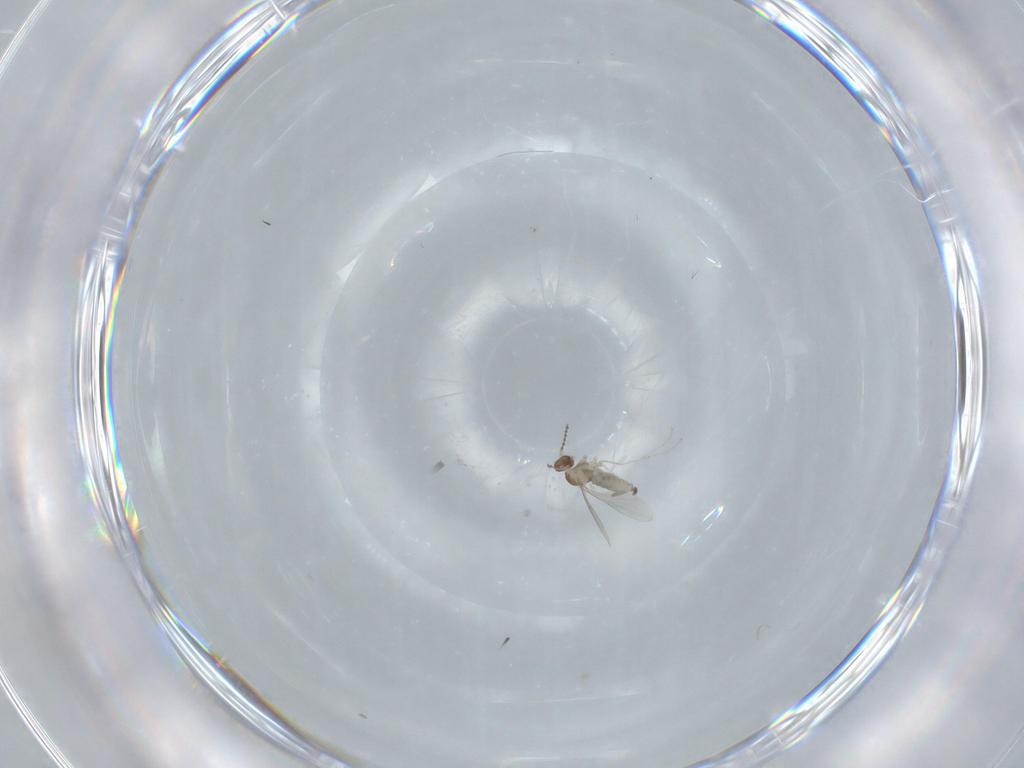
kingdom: Animalia
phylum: Arthropoda
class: Insecta
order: Diptera
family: Cecidomyiidae
